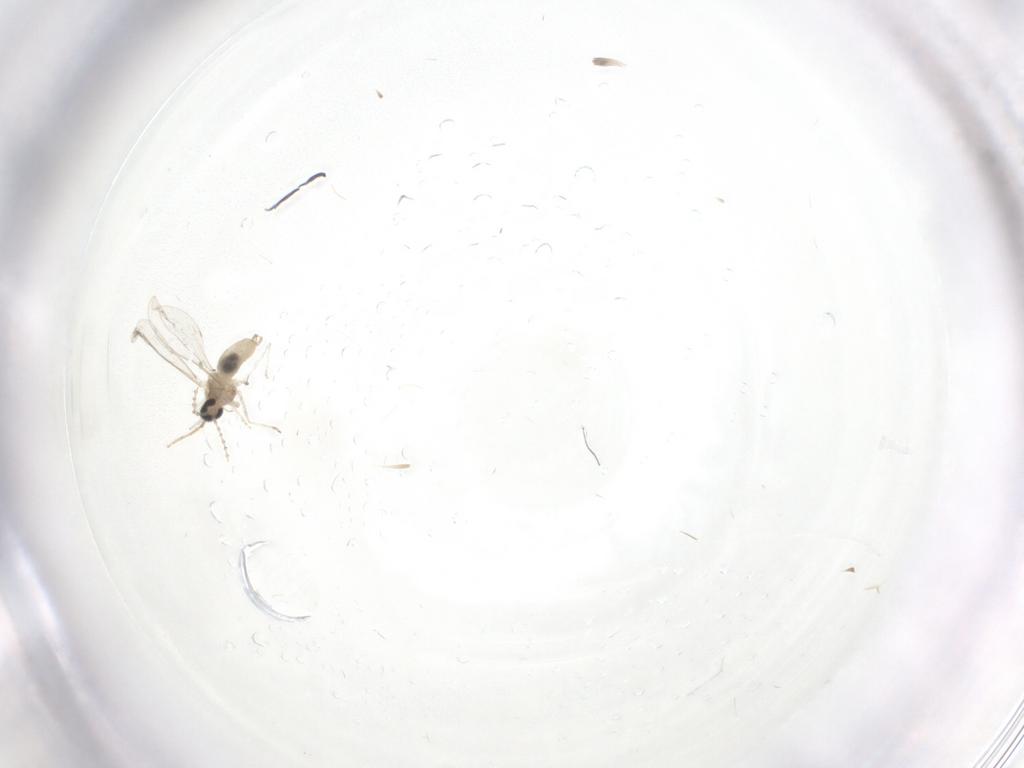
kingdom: Animalia
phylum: Arthropoda
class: Insecta
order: Diptera
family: Cecidomyiidae
